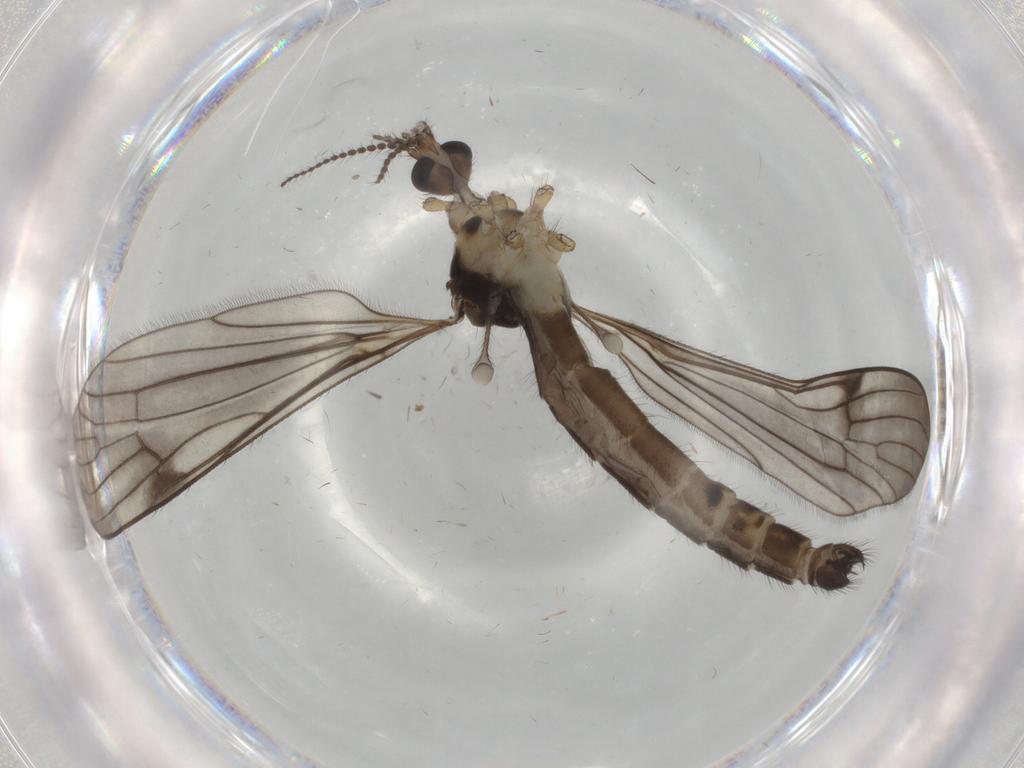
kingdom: Animalia
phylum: Arthropoda
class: Insecta
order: Diptera
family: Limoniidae
